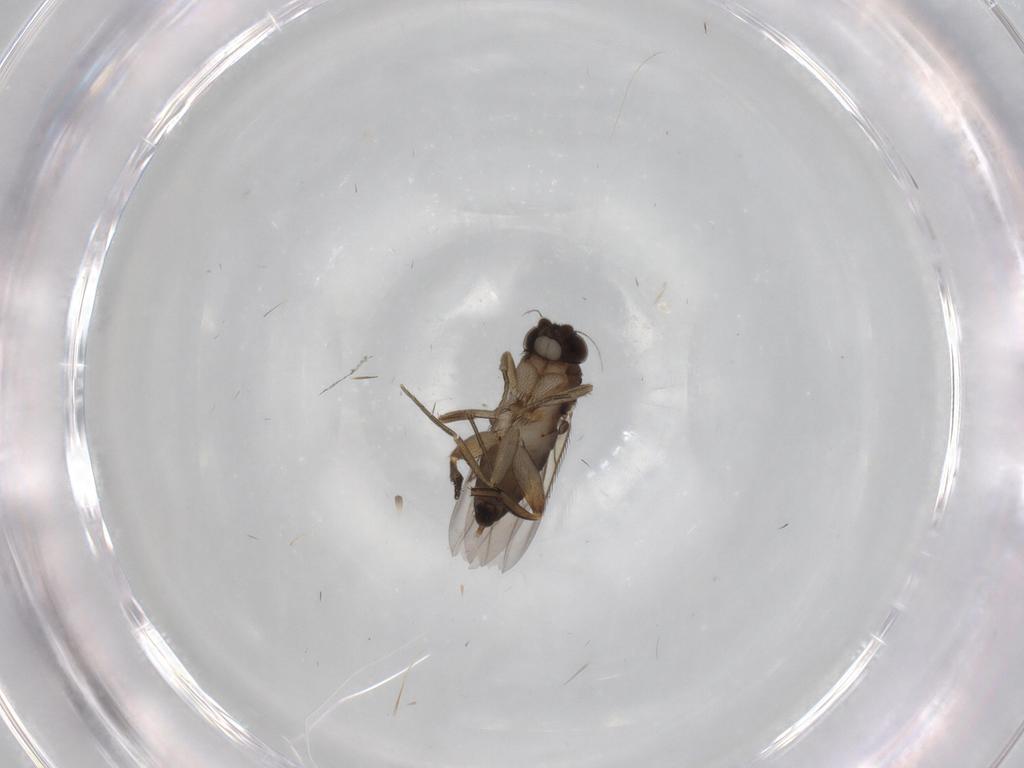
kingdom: Animalia
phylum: Arthropoda
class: Insecta
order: Diptera
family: Phoridae
